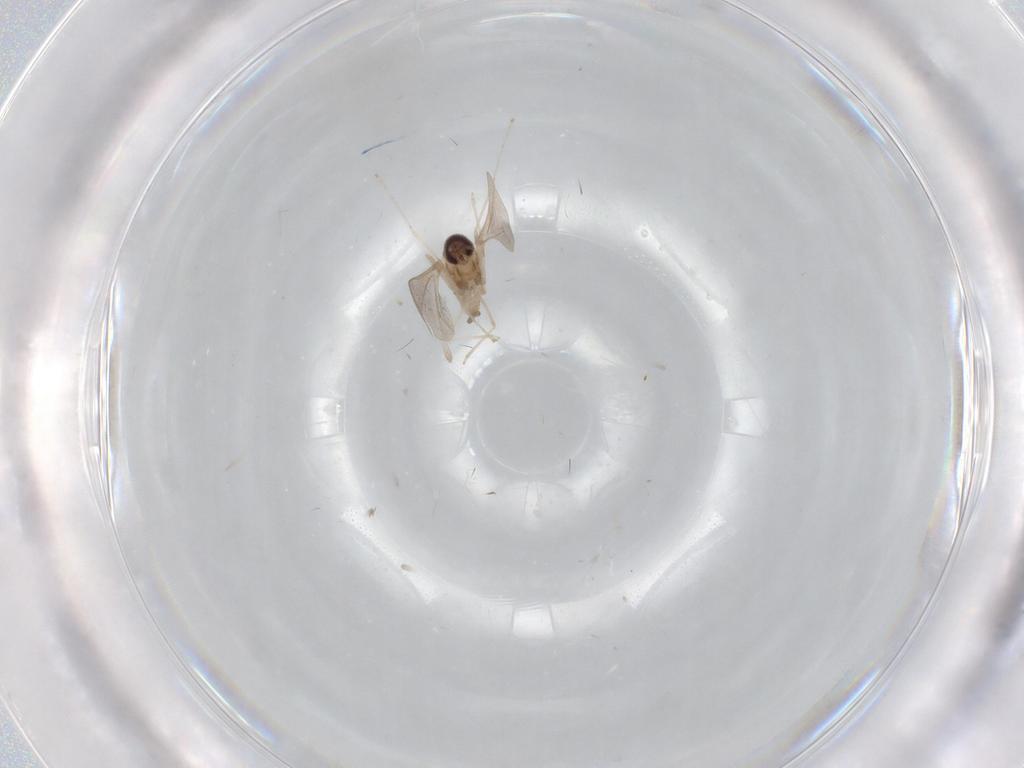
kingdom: Animalia
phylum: Arthropoda
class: Insecta
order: Diptera
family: Cecidomyiidae
